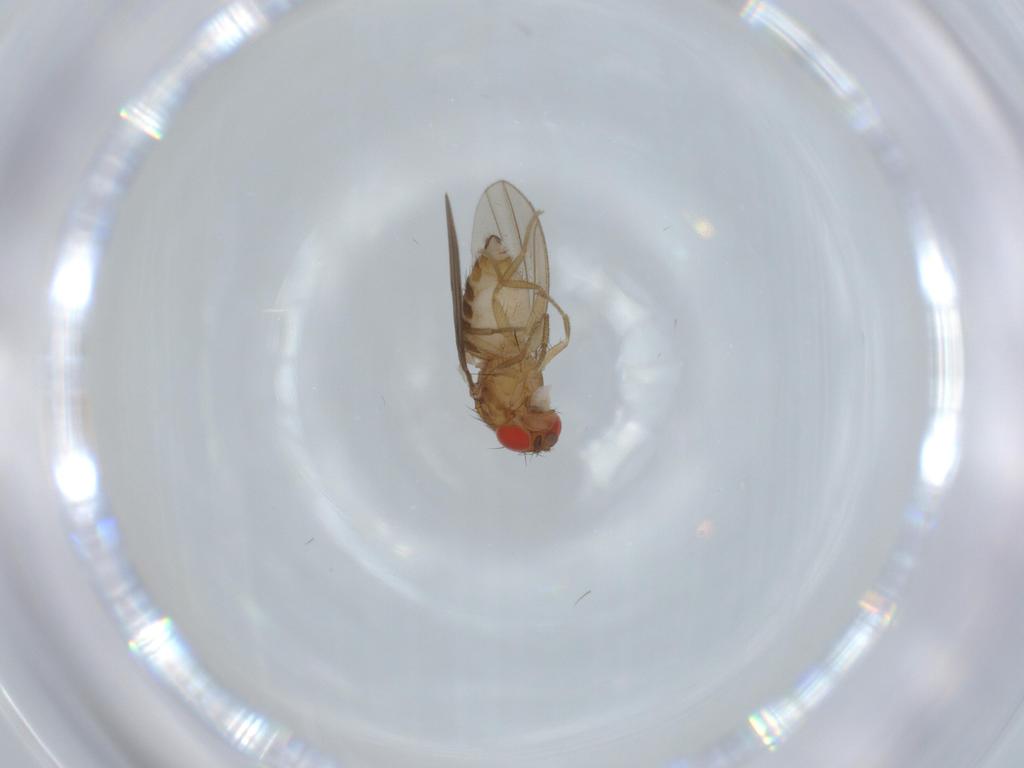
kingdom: Animalia
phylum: Arthropoda
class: Insecta
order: Diptera
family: Drosophilidae
